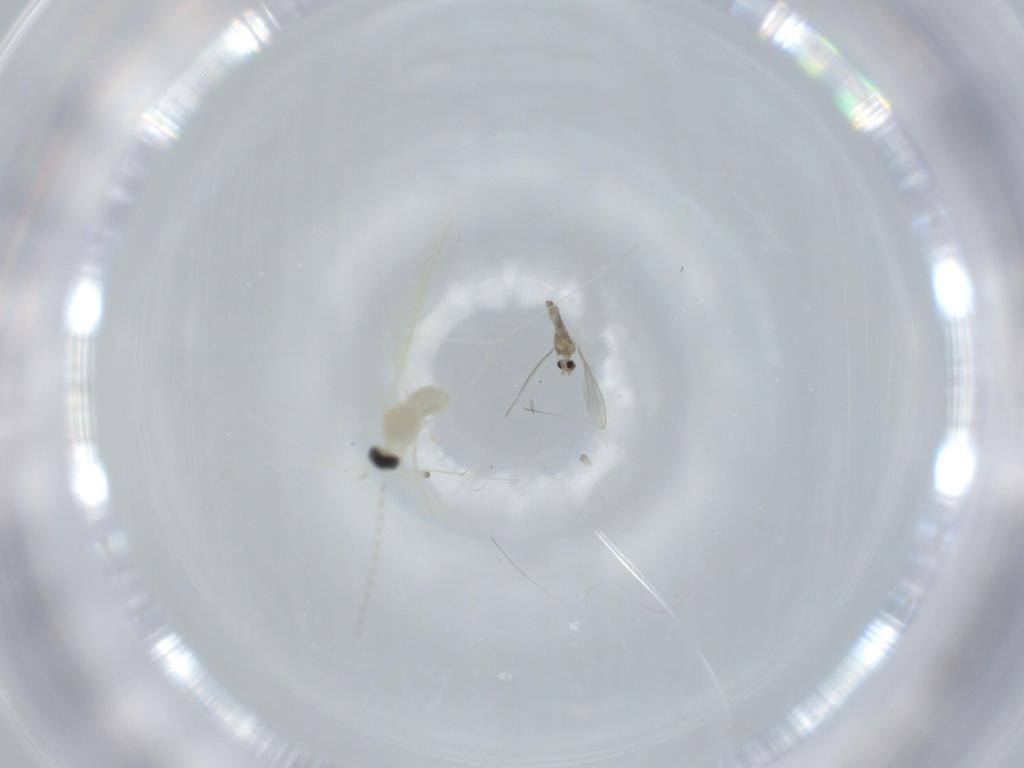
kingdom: Animalia
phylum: Arthropoda
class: Insecta
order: Diptera
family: Cecidomyiidae
